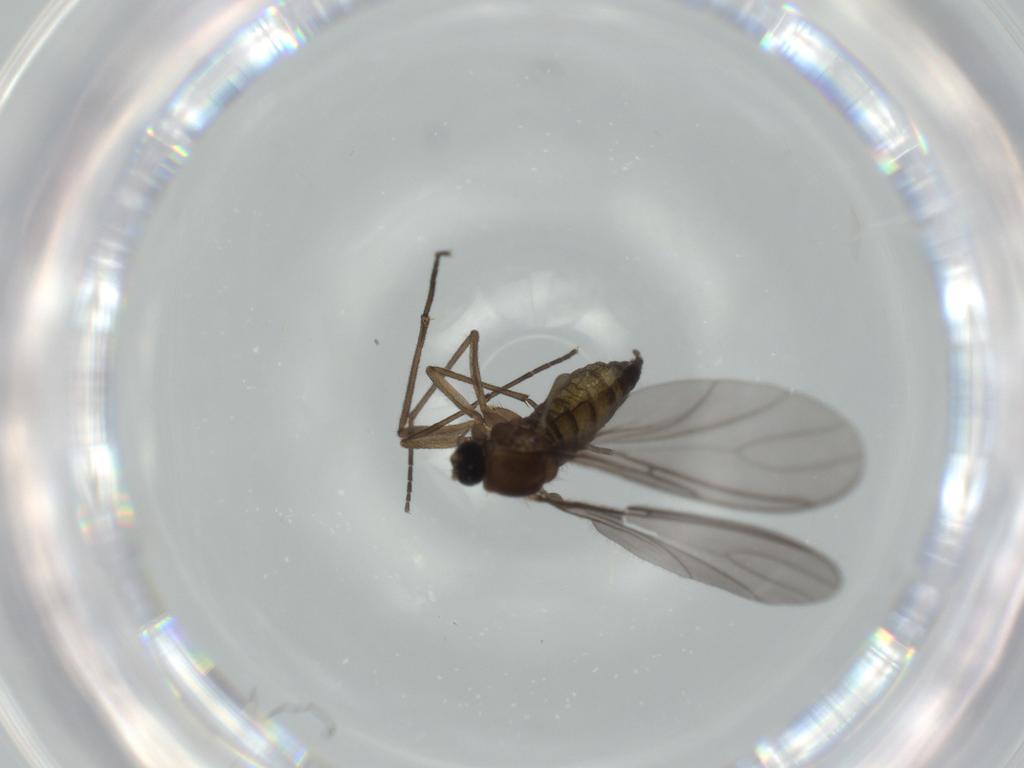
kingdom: Animalia
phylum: Arthropoda
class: Insecta
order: Diptera
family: Sciaridae
